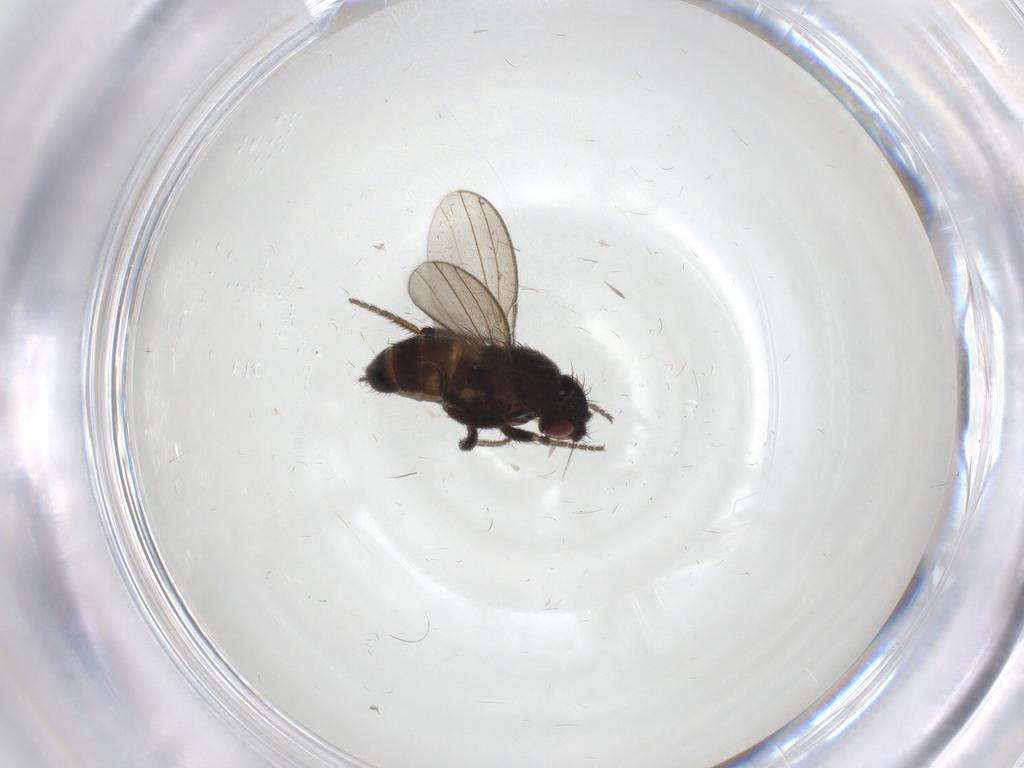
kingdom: Animalia
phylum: Arthropoda
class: Insecta
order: Diptera
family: Milichiidae
